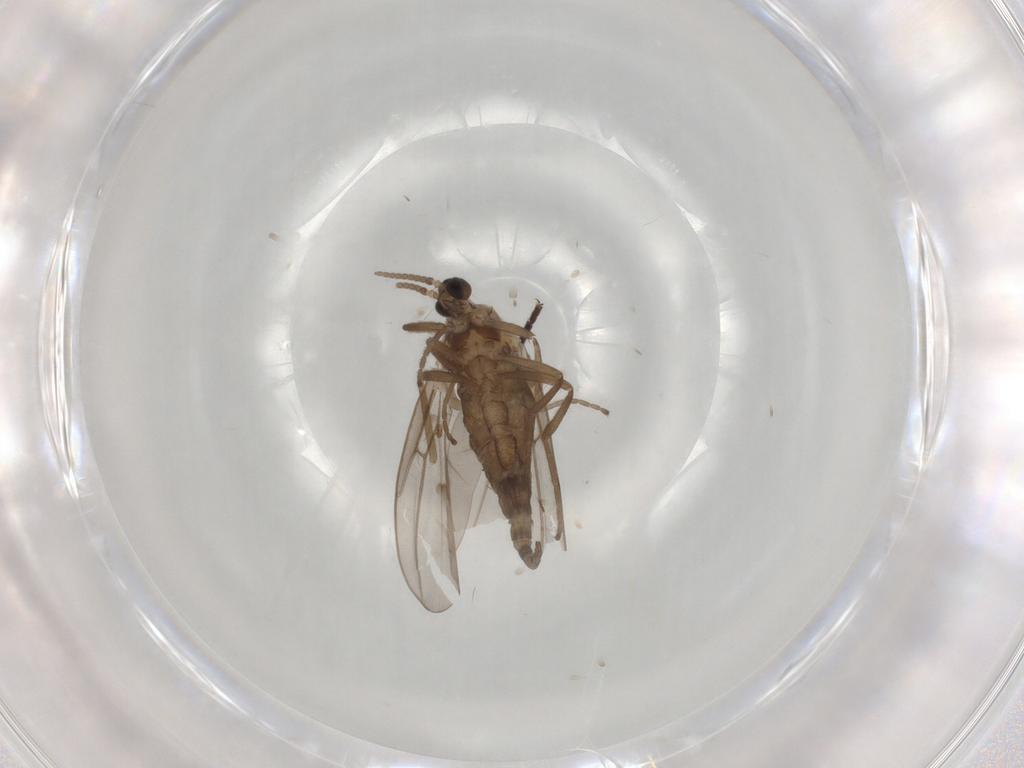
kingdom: Animalia
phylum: Arthropoda
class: Insecta
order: Diptera
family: Cecidomyiidae
